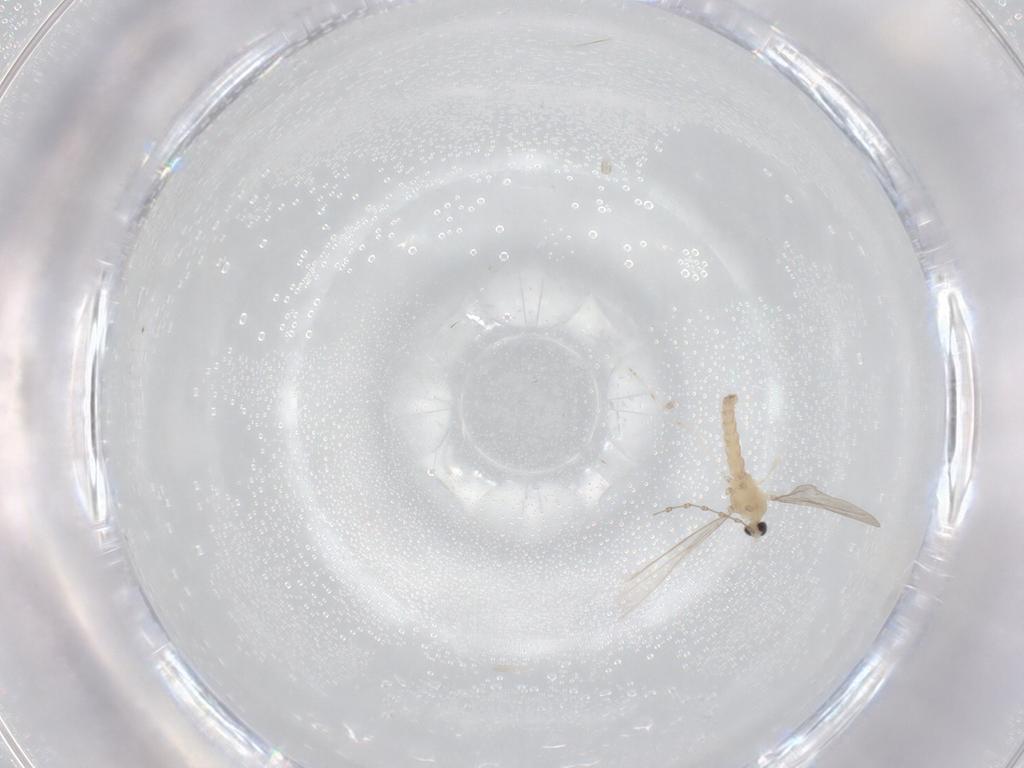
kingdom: Animalia
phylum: Arthropoda
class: Insecta
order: Diptera
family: Cecidomyiidae
